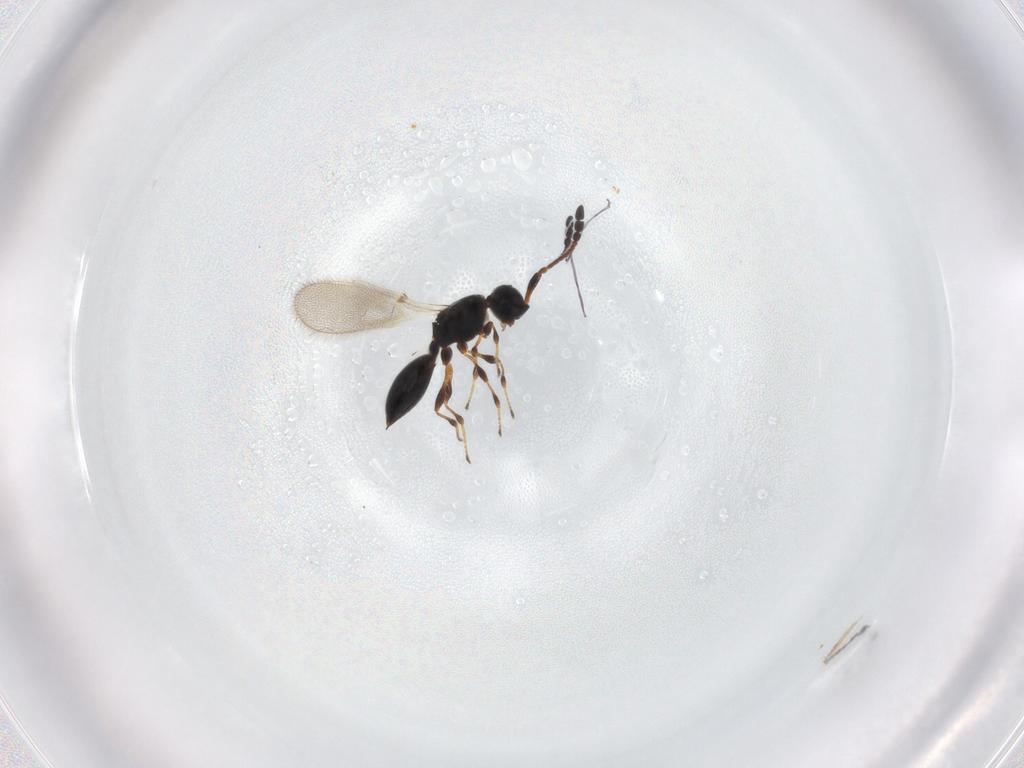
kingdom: Animalia
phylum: Arthropoda
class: Insecta
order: Hymenoptera
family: Diapriidae
